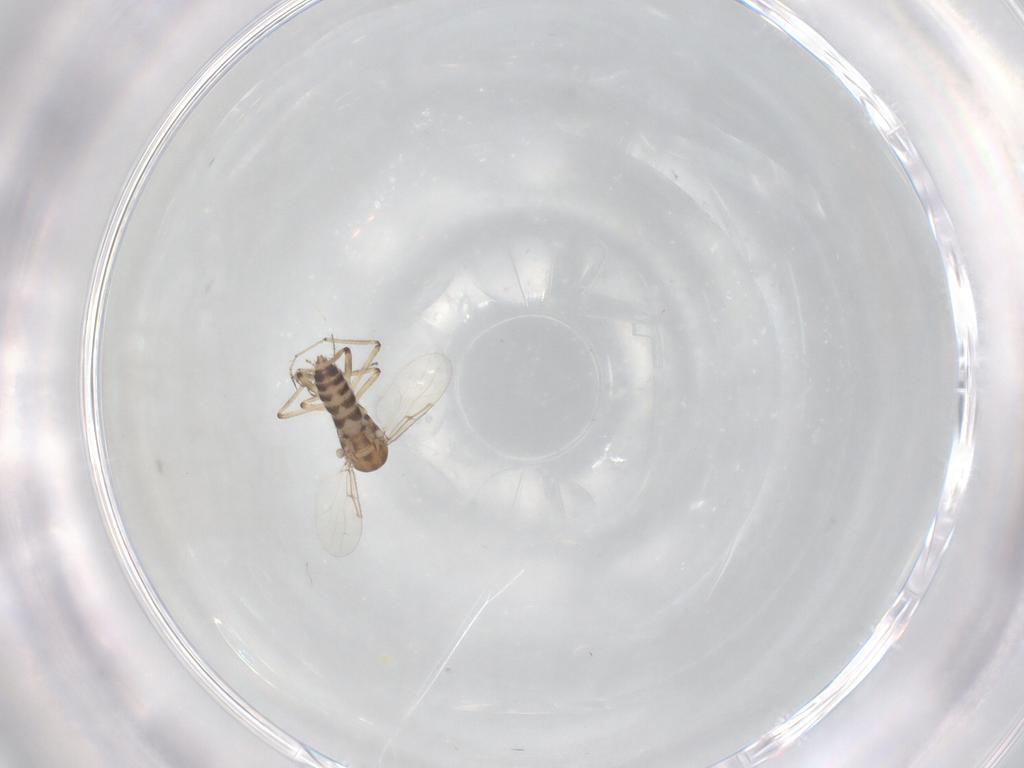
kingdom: Animalia
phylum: Arthropoda
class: Insecta
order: Diptera
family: Ceratopogonidae
